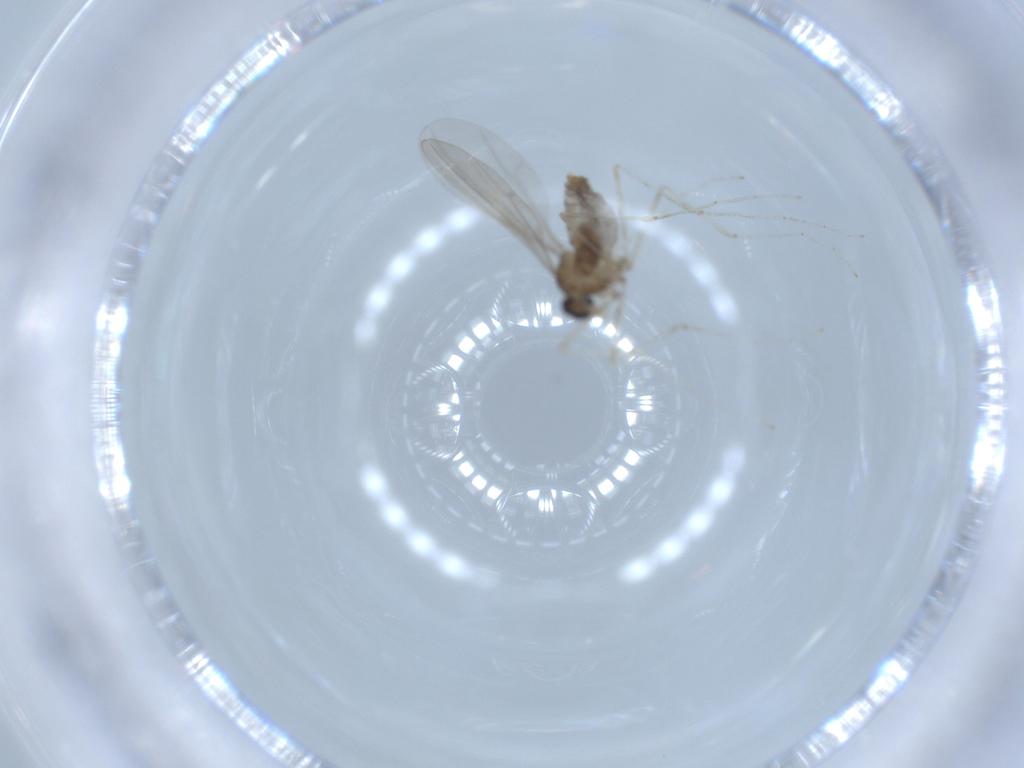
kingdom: Animalia
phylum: Arthropoda
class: Insecta
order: Diptera
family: Cecidomyiidae
